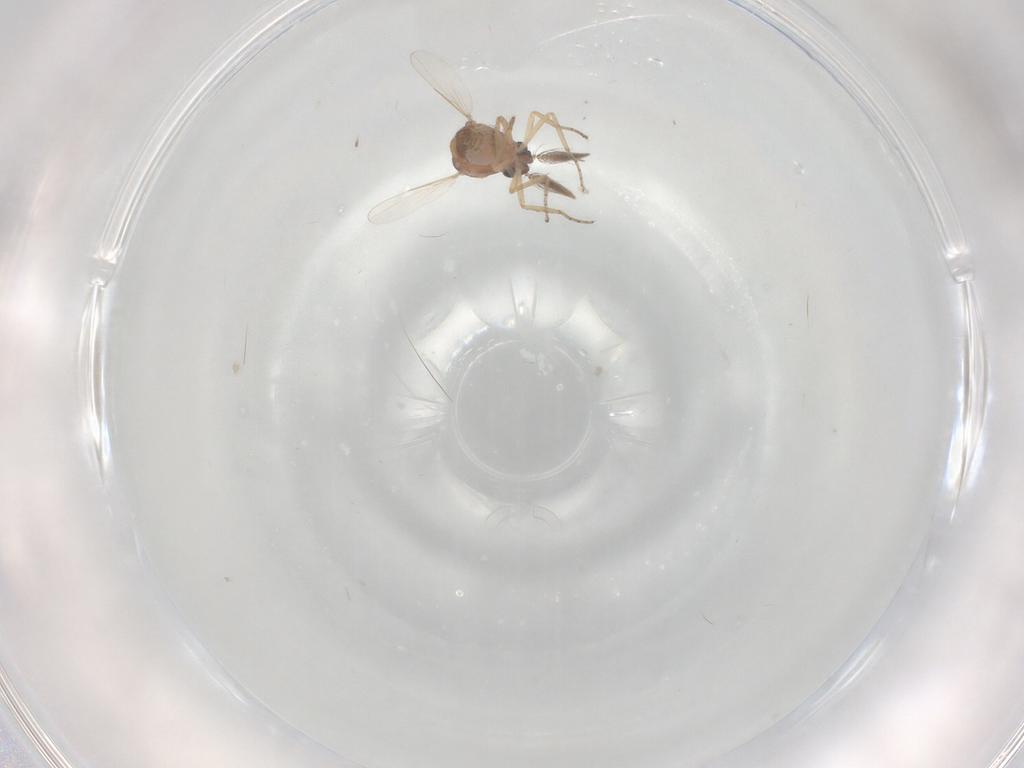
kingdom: Animalia
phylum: Arthropoda
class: Insecta
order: Diptera
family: Ceratopogonidae
